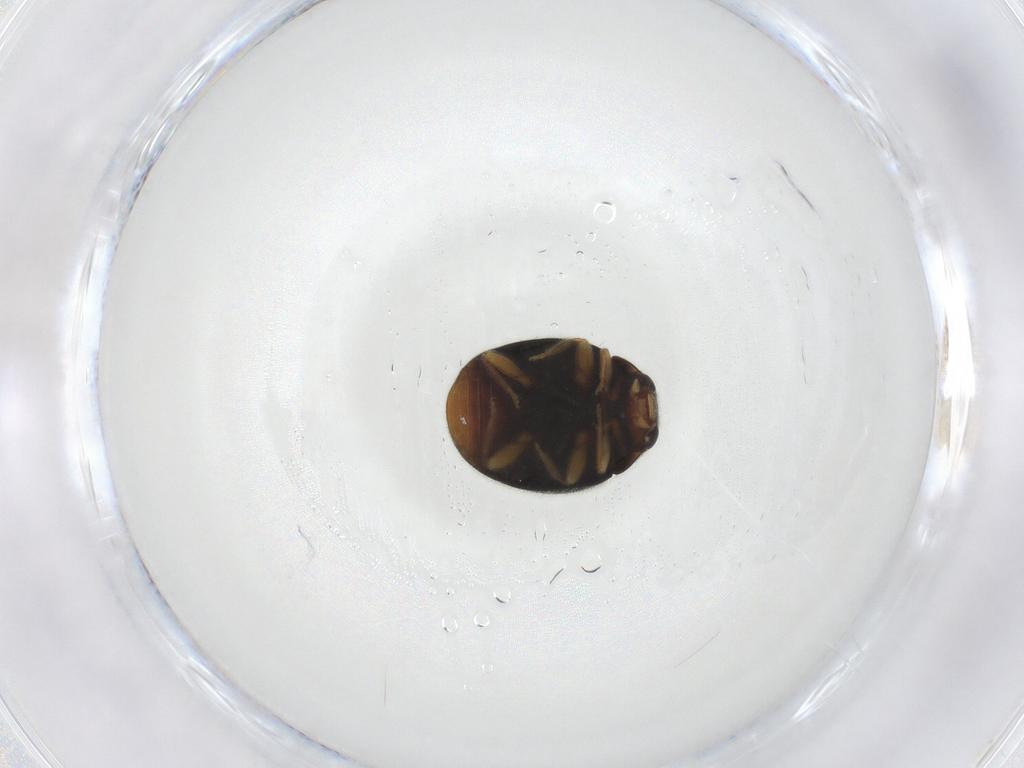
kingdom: Animalia
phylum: Arthropoda
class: Insecta
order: Coleoptera
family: Coccinellidae
